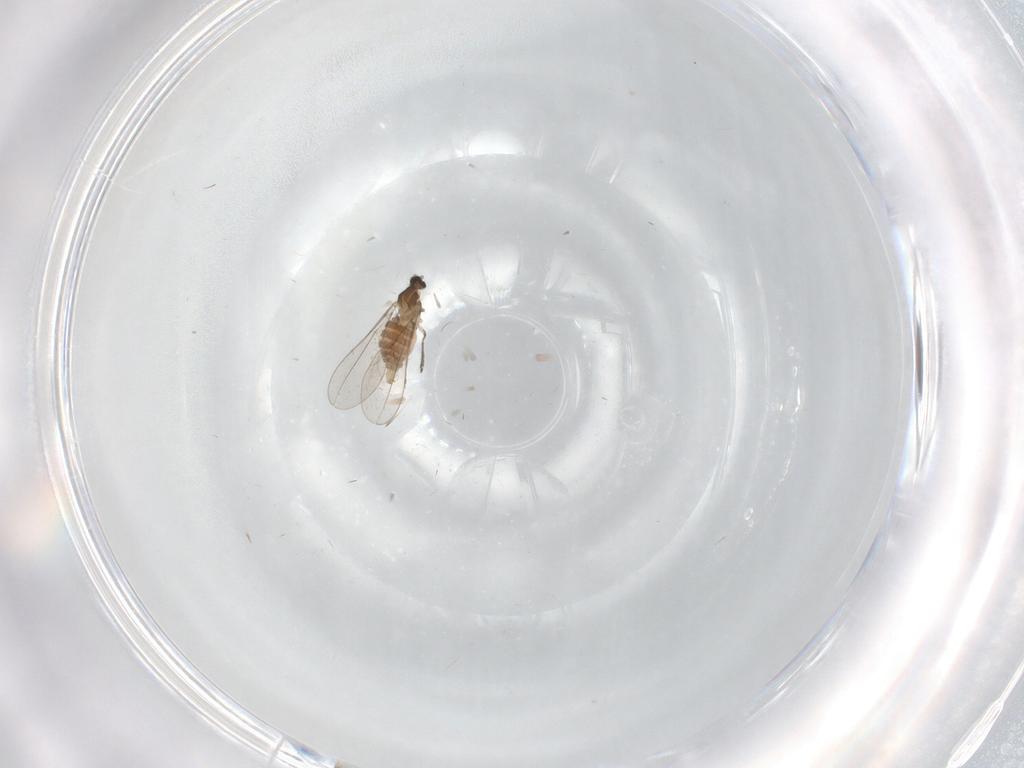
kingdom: Animalia
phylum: Arthropoda
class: Insecta
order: Diptera
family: Cecidomyiidae
